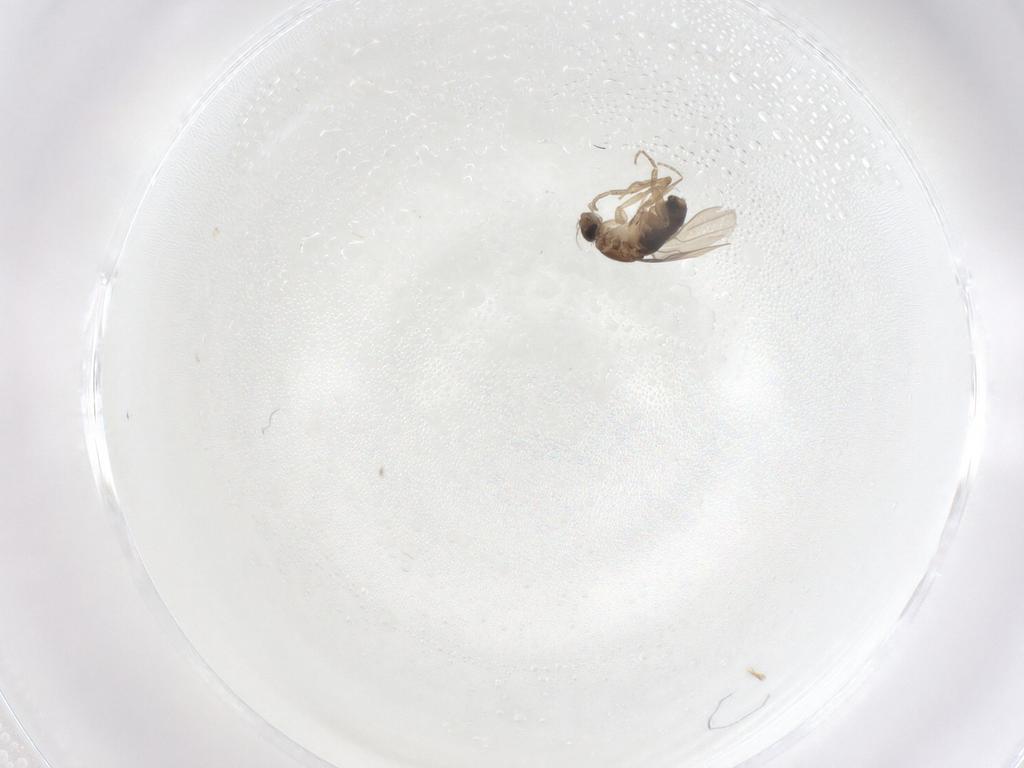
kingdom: Animalia
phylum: Arthropoda
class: Insecta
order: Diptera
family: Phoridae
